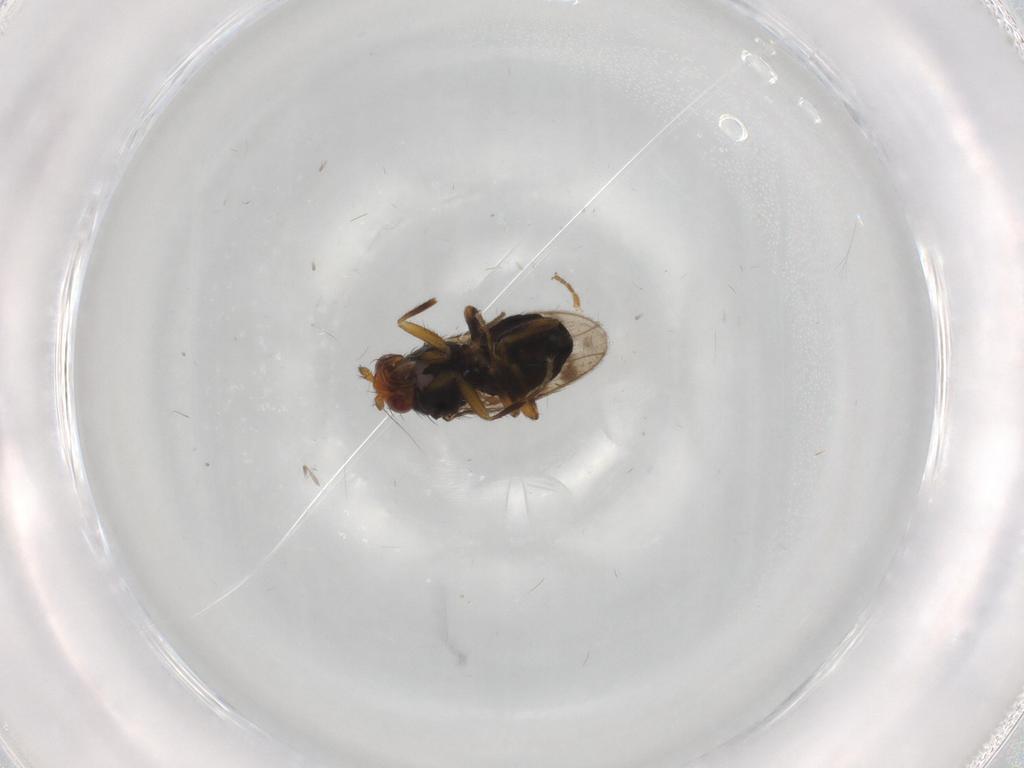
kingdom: Animalia
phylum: Arthropoda
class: Insecta
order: Diptera
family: Sphaeroceridae
